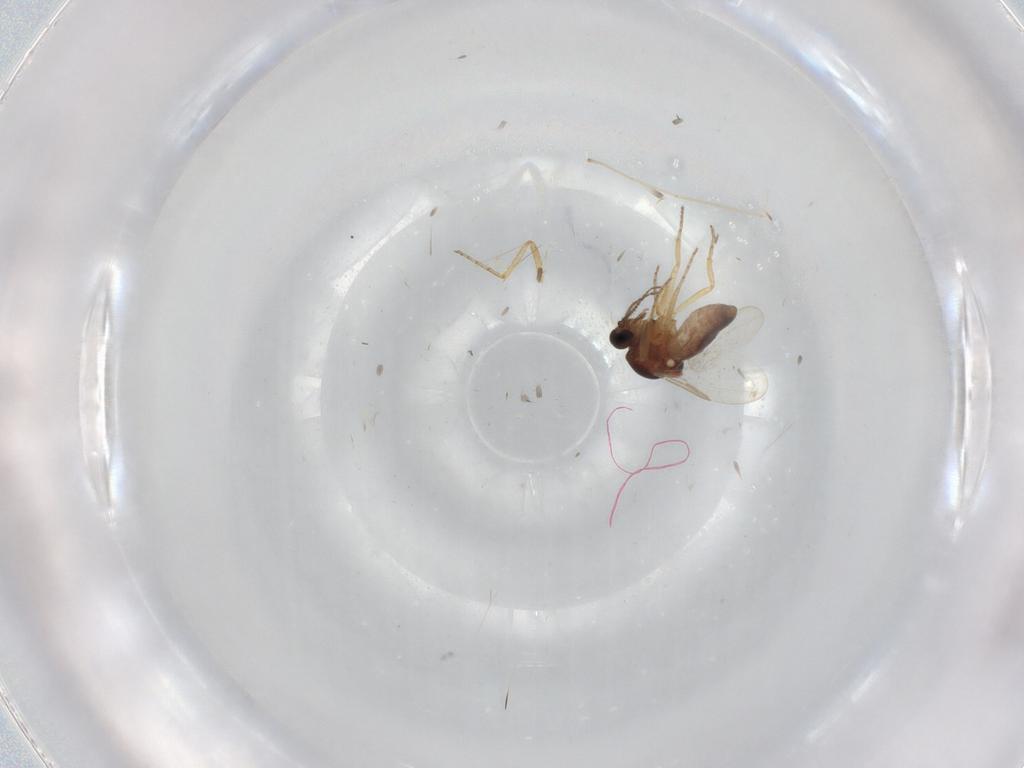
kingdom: Animalia
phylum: Arthropoda
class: Insecta
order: Diptera
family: Ceratopogonidae
